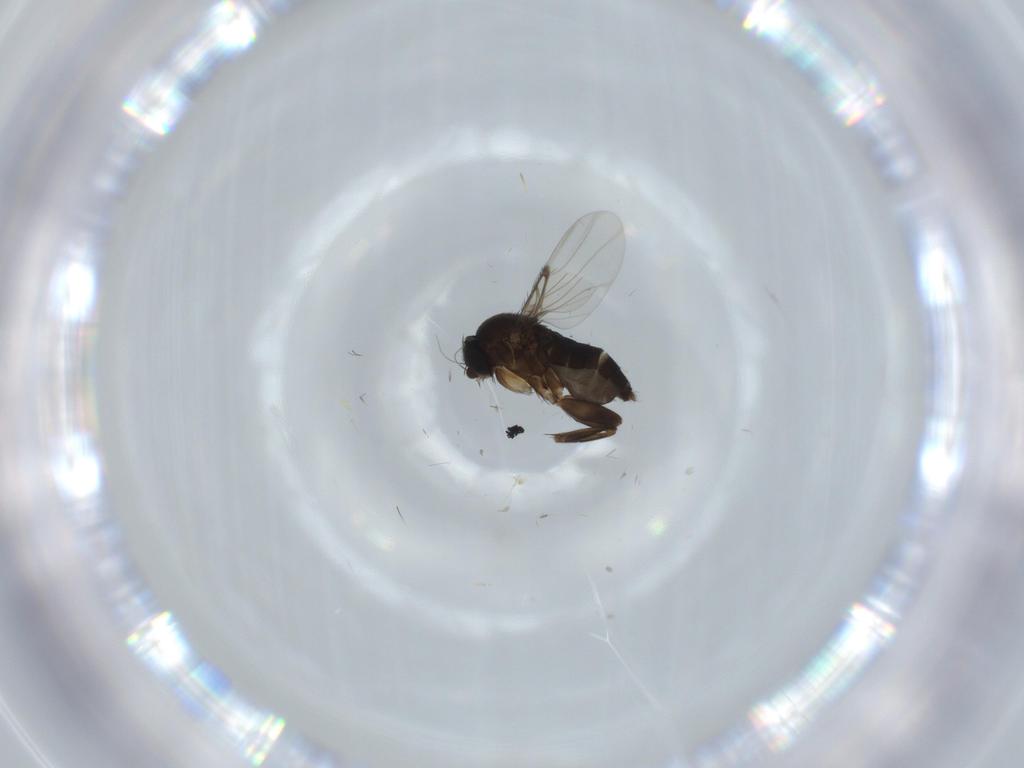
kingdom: Animalia
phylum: Arthropoda
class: Insecta
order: Diptera
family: Phoridae
